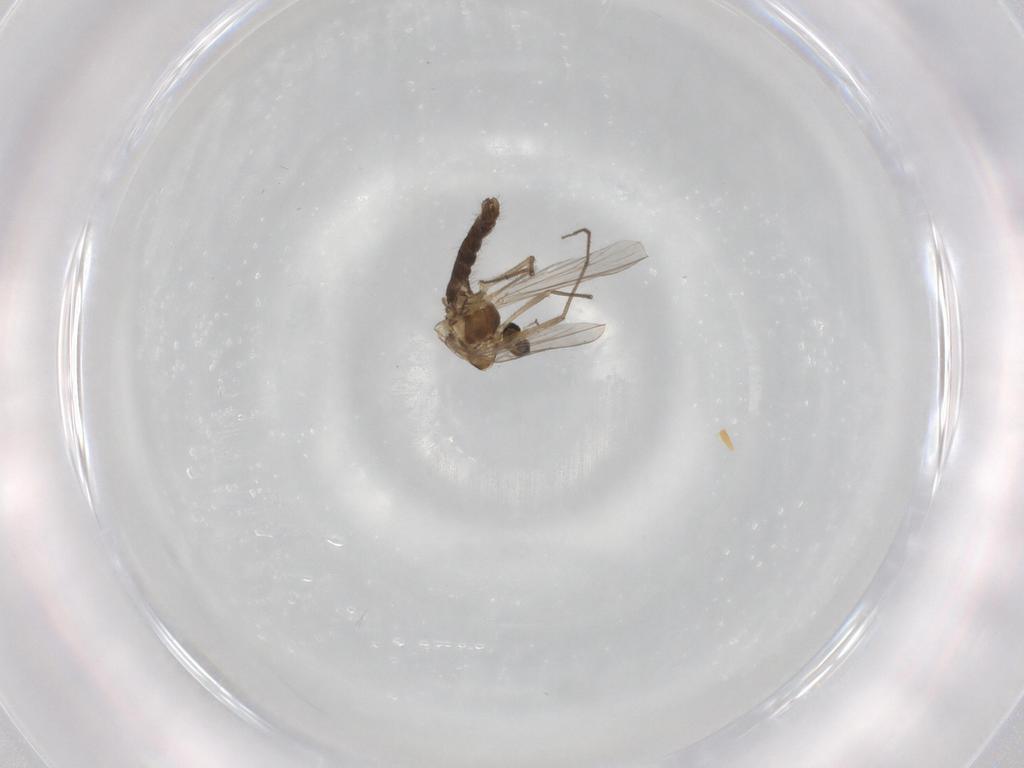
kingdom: Animalia
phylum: Arthropoda
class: Insecta
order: Diptera
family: Chironomidae
